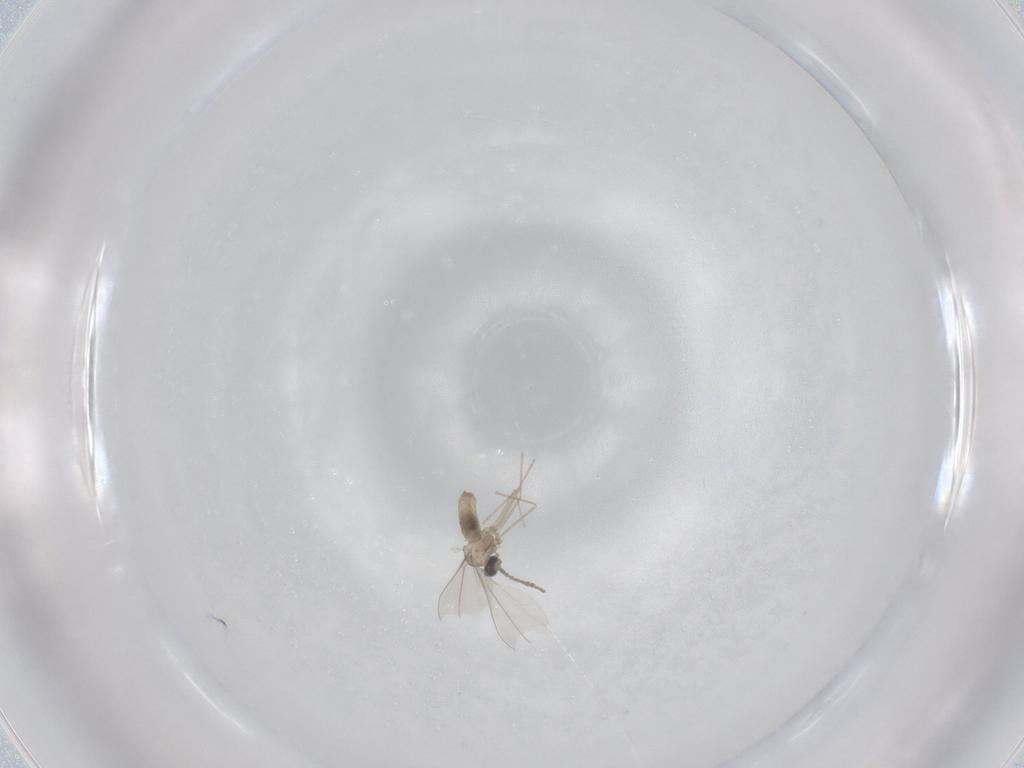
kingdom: Animalia
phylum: Arthropoda
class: Insecta
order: Diptera
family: Cecidomyiidae
